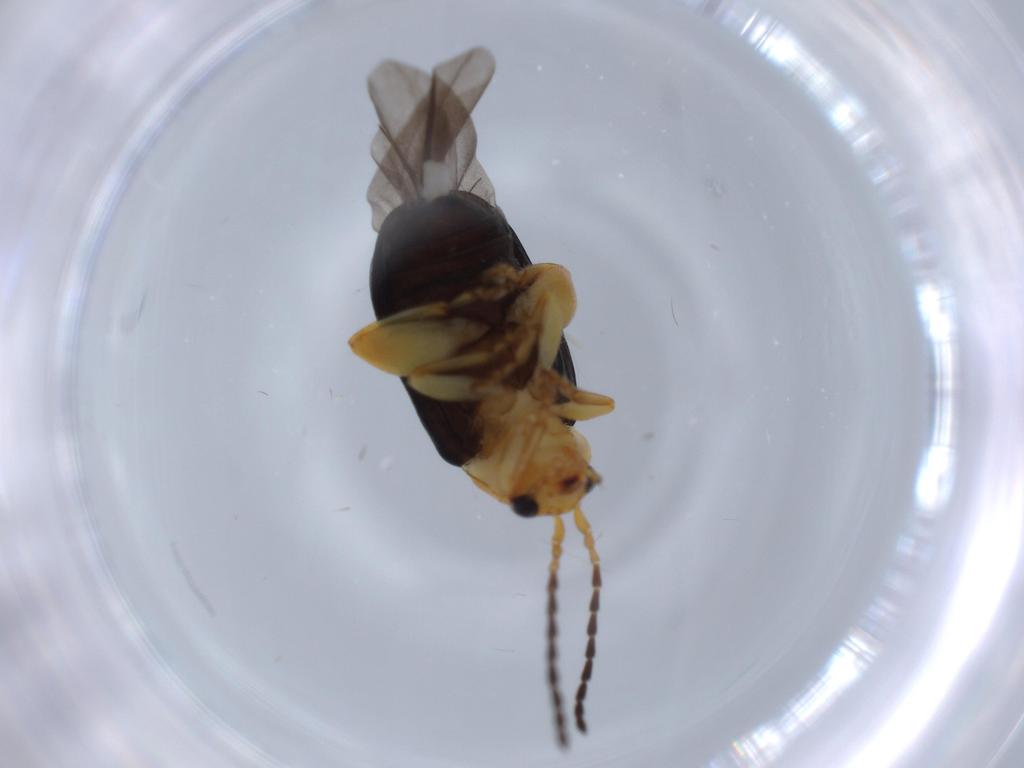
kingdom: Animalia
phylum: Arthropoda
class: Insecta
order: Coleoptera
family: Chrysomelidae
